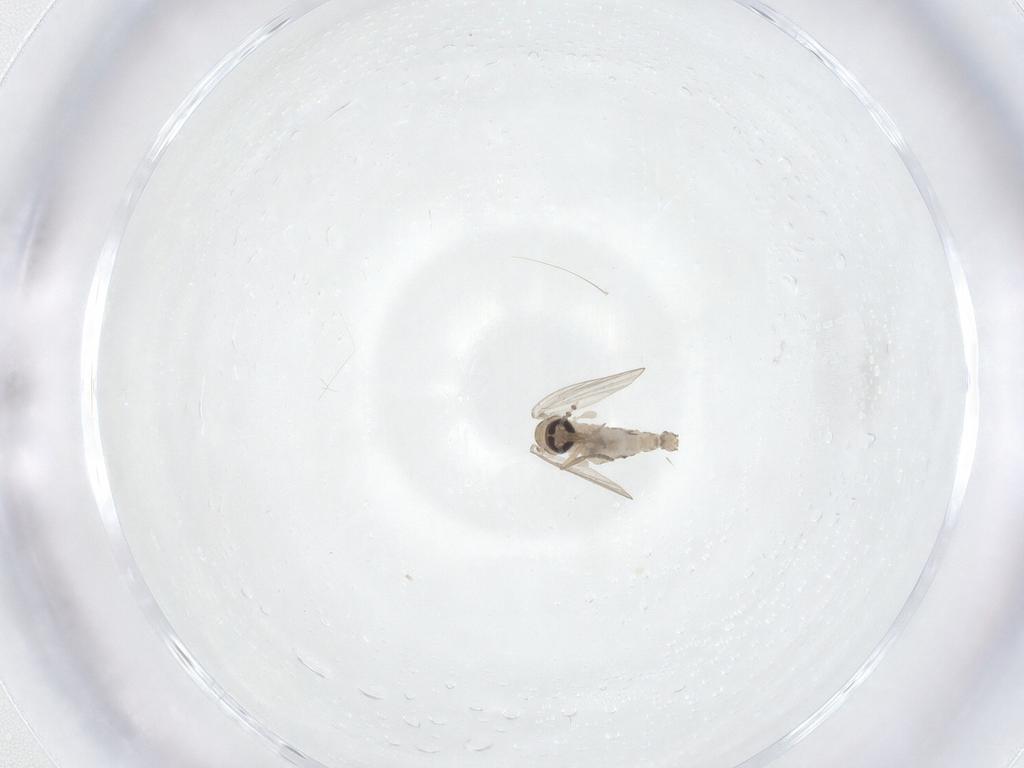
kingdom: Animalia
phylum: Arthropoda
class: Insecta
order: Diptera
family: Psychodidae
